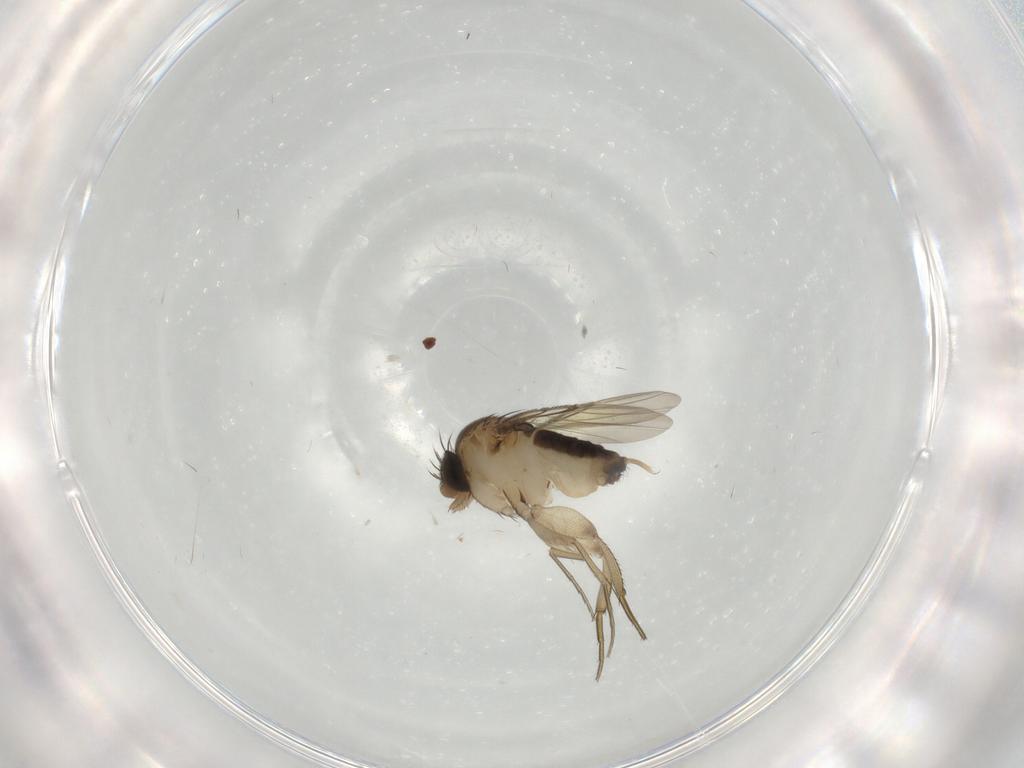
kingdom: Animalia
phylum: Arthropoda
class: Insecta
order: Diptera
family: Phoridae
